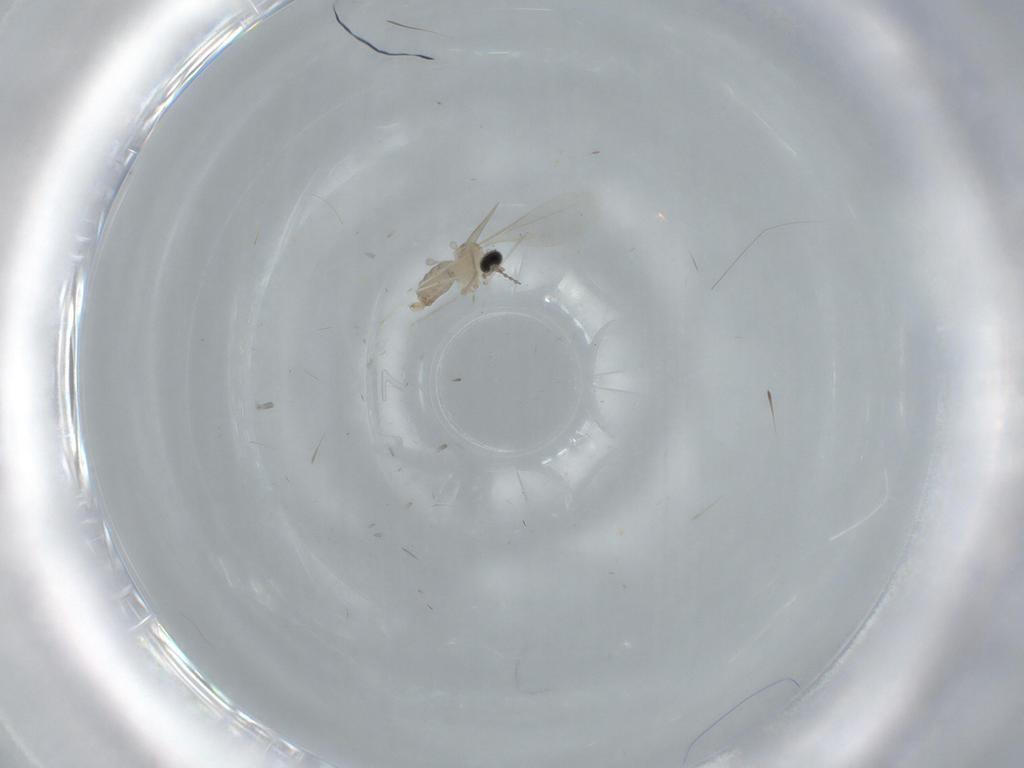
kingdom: Animalia
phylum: Arthropoda
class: Insecta
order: Diptera
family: Cecidomyiidae
